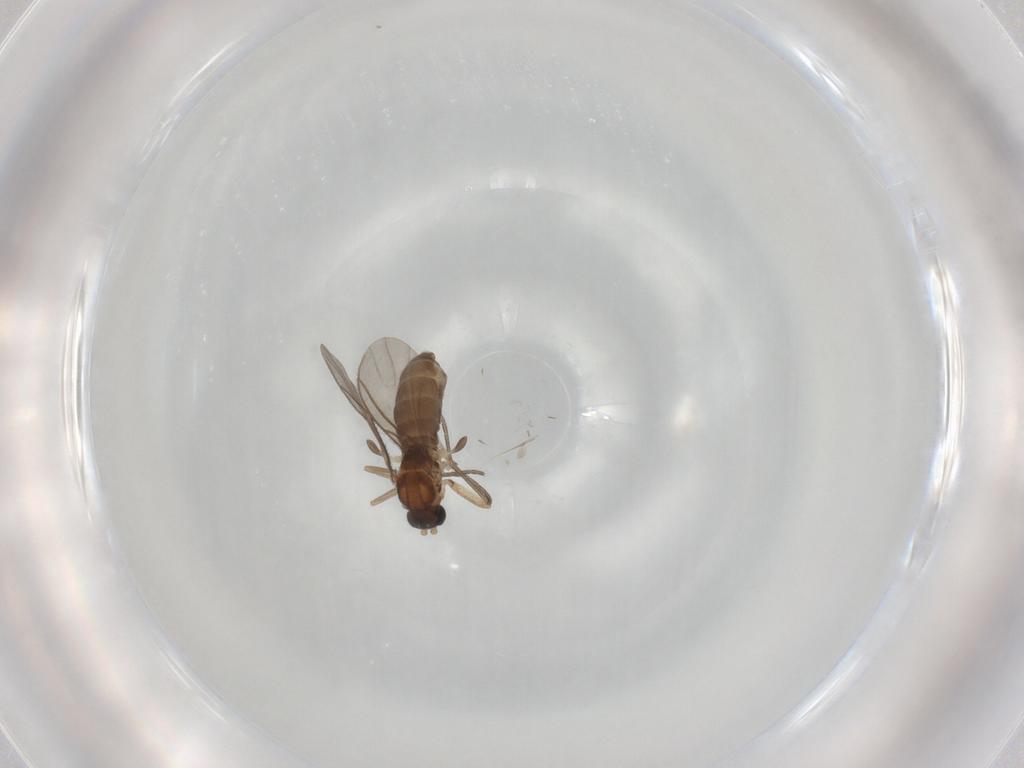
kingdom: Animalia
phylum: Arthropoda
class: Insecta
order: Diptera
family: Sciaridae
